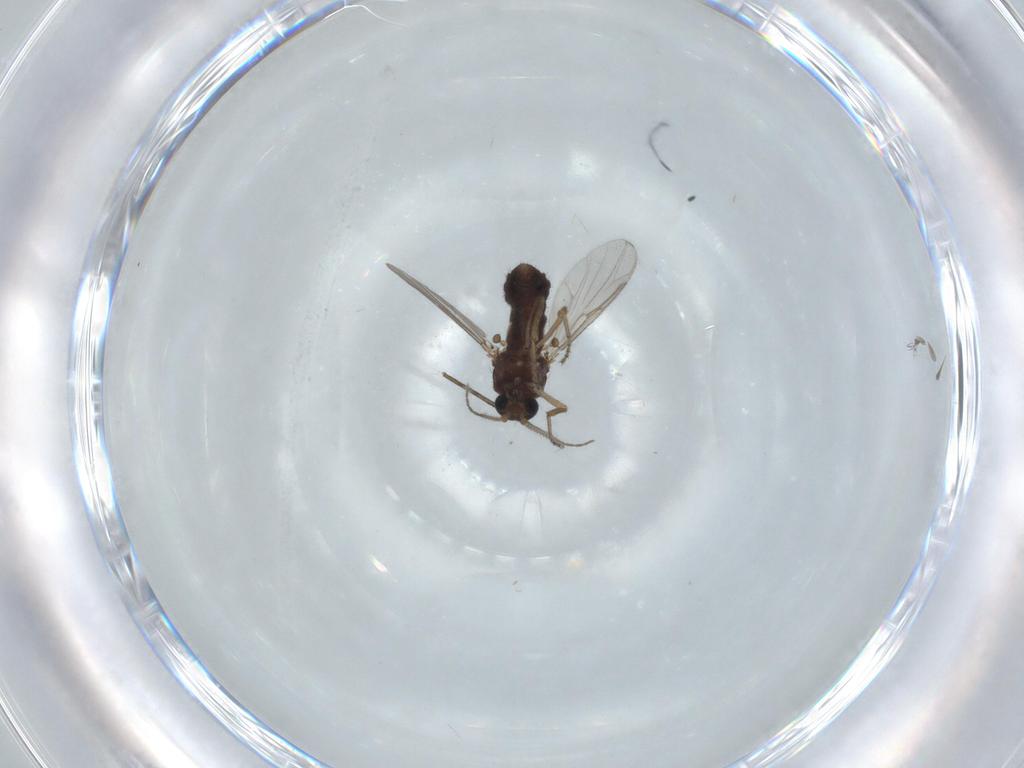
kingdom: Animalia
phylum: Arthropoda
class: Insecta
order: Diptera
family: Ceratopogonidae
